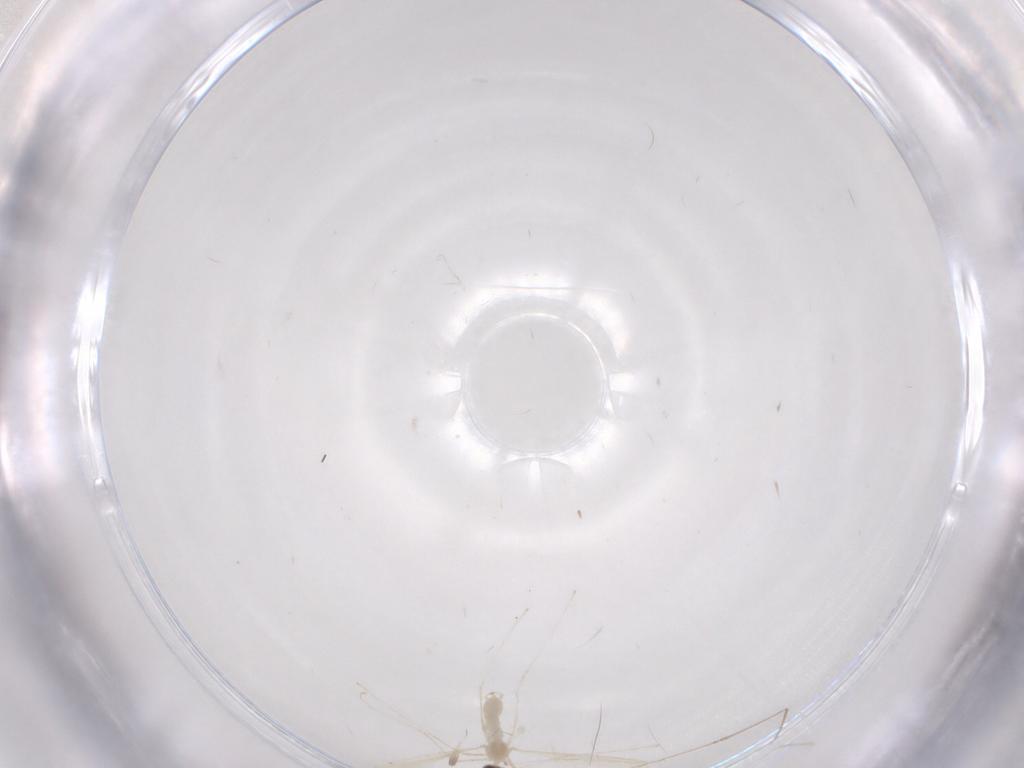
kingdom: Animalia
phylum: Arthropoda
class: Insecta
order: Diptera
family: Cecidomyiidae
